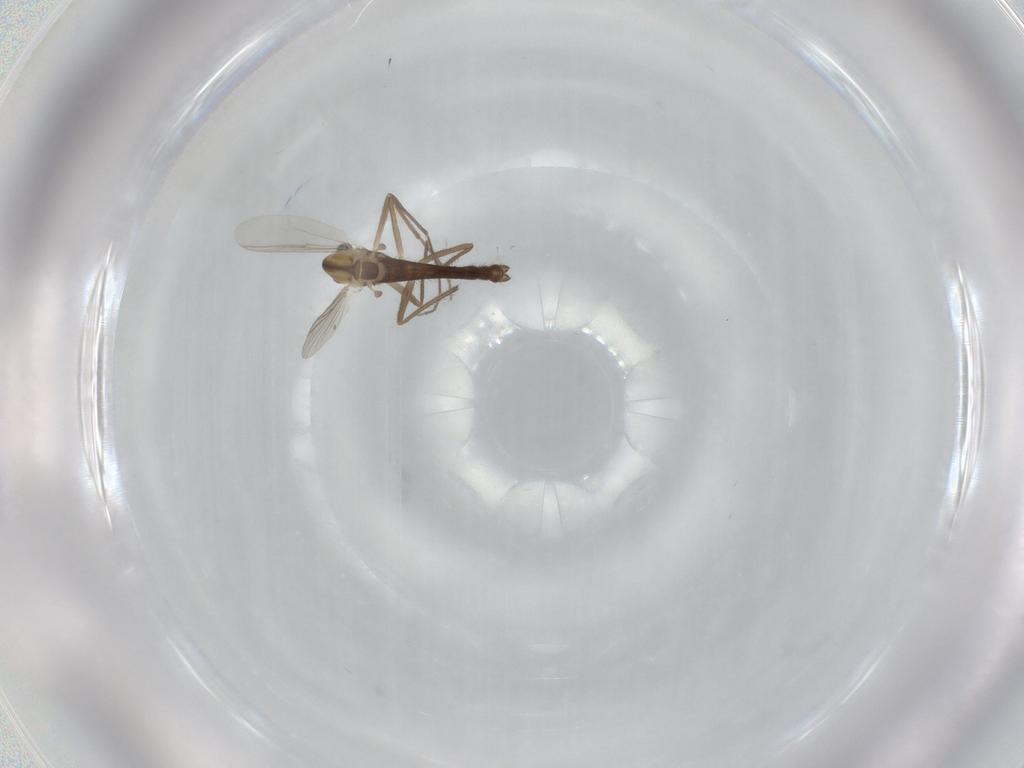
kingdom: Animalia
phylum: Arthropoda
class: Insecta
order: Diptera
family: Chironomidae
